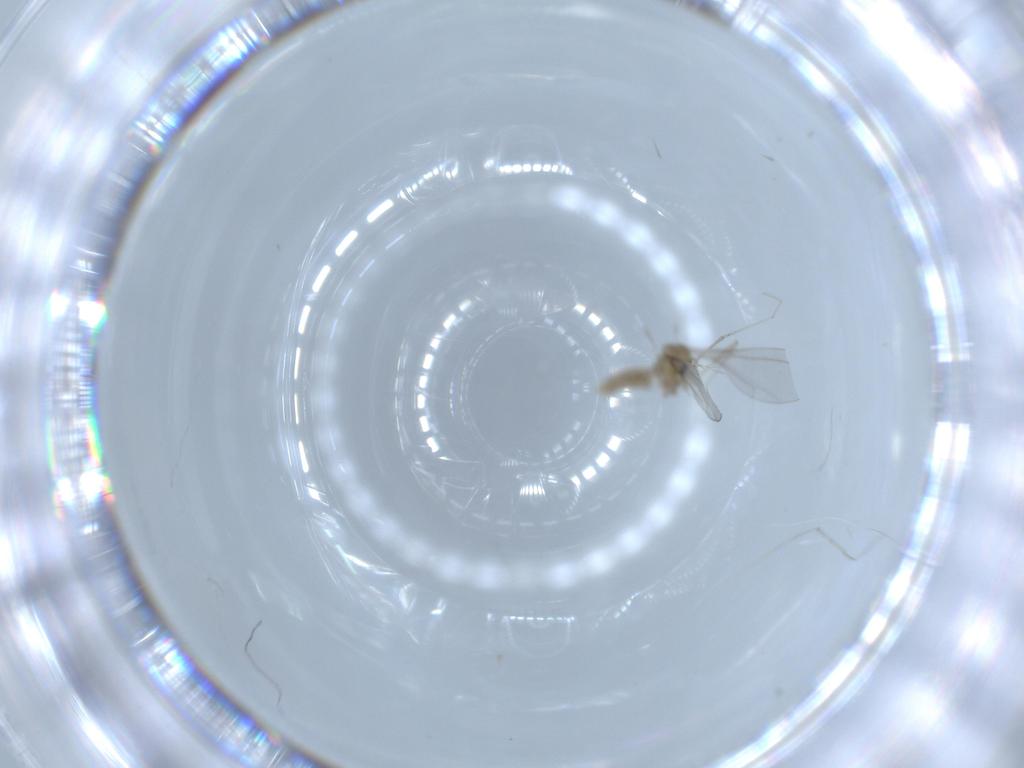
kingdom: Animalia
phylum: Arthropoda
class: Insecta
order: Diptera
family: Cecidomyiidae
